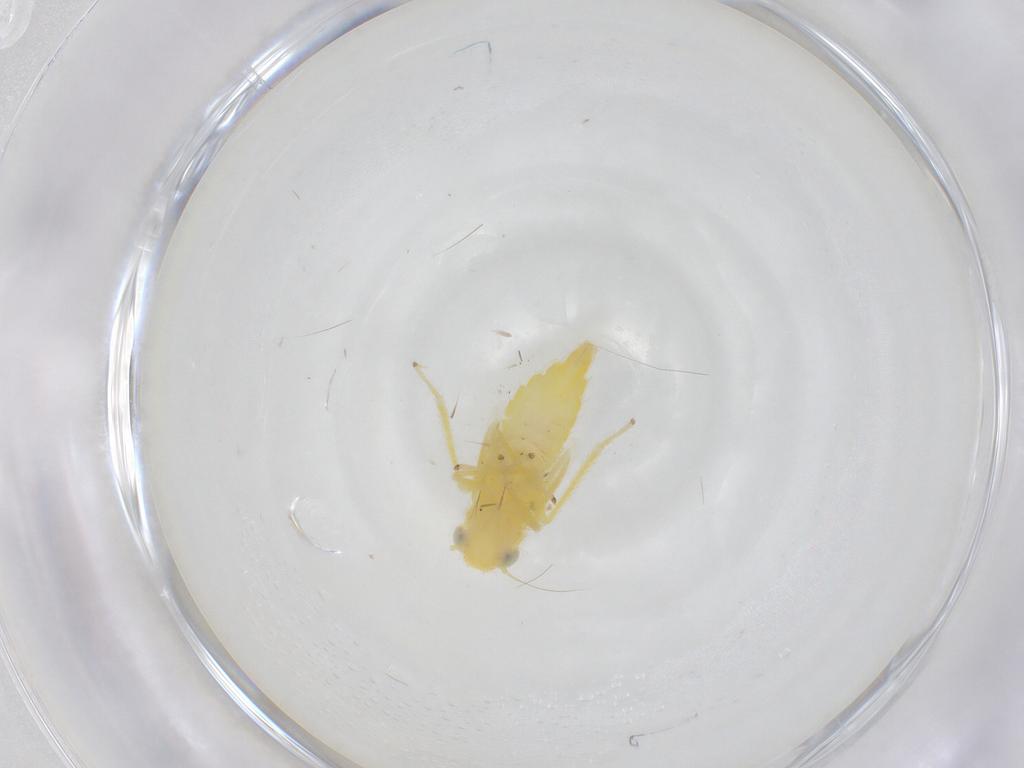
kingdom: Animalia
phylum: Arthropoda
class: Insecta
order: Hemiptera
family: Cicadellidae
